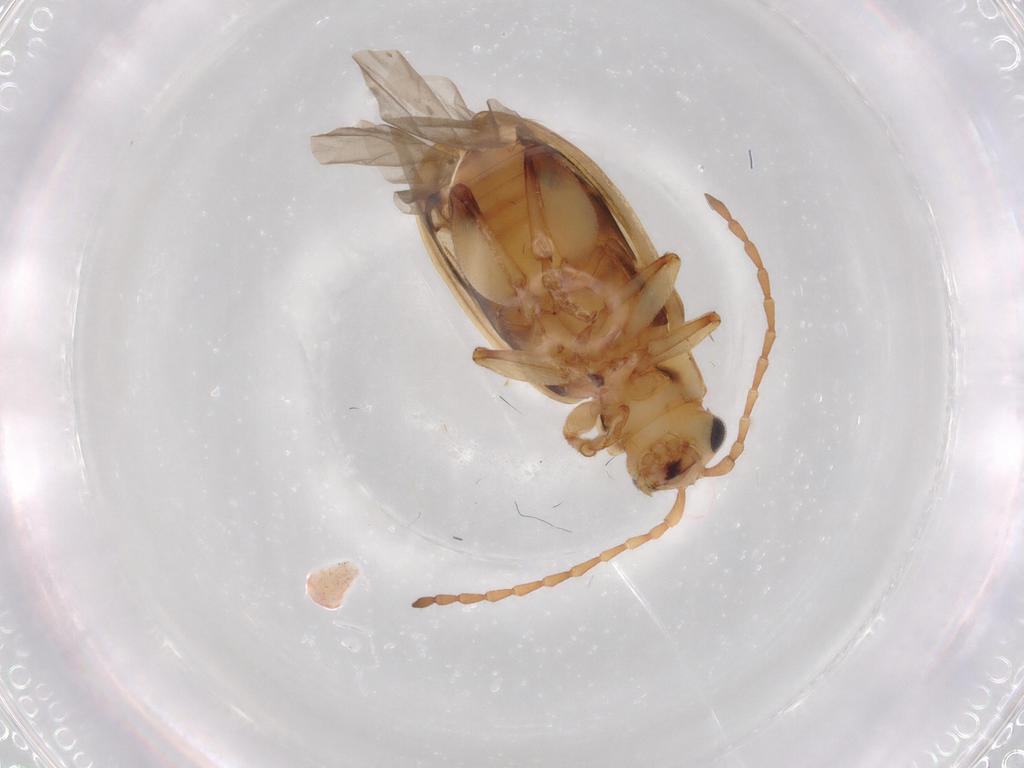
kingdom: Animalia
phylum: Arthropoda
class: Insecta
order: Coleoptera
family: Chrysomelidae
